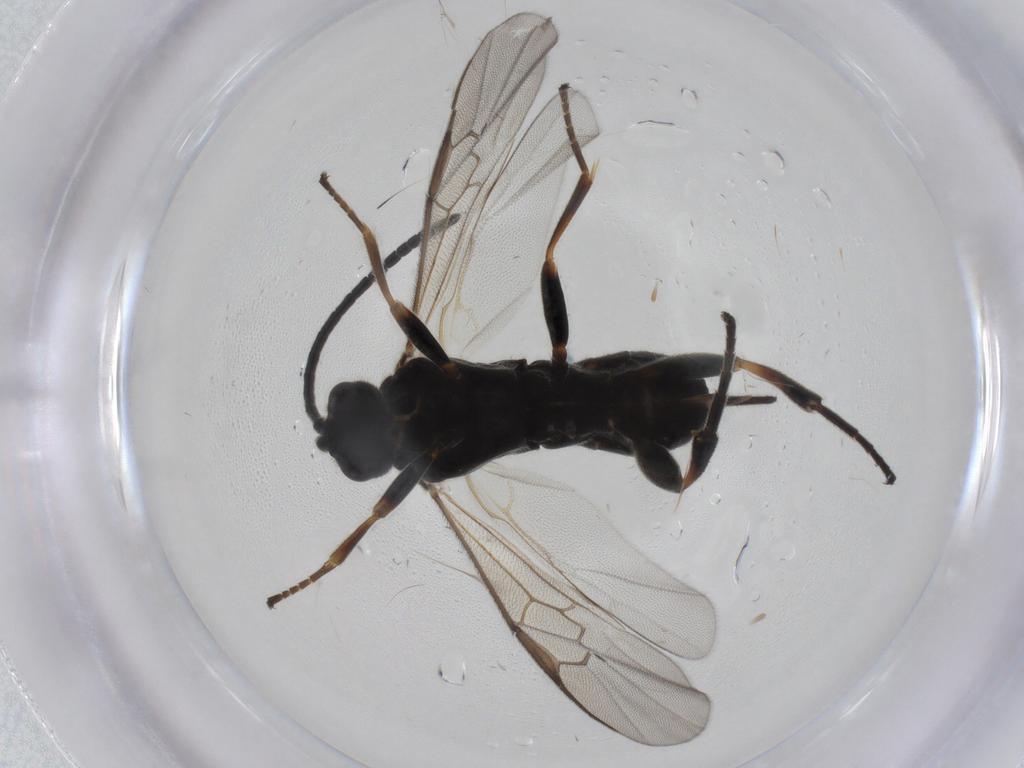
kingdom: Animalia
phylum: Arthropoda
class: Insecta
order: Hymenoptera
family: Braconidae
